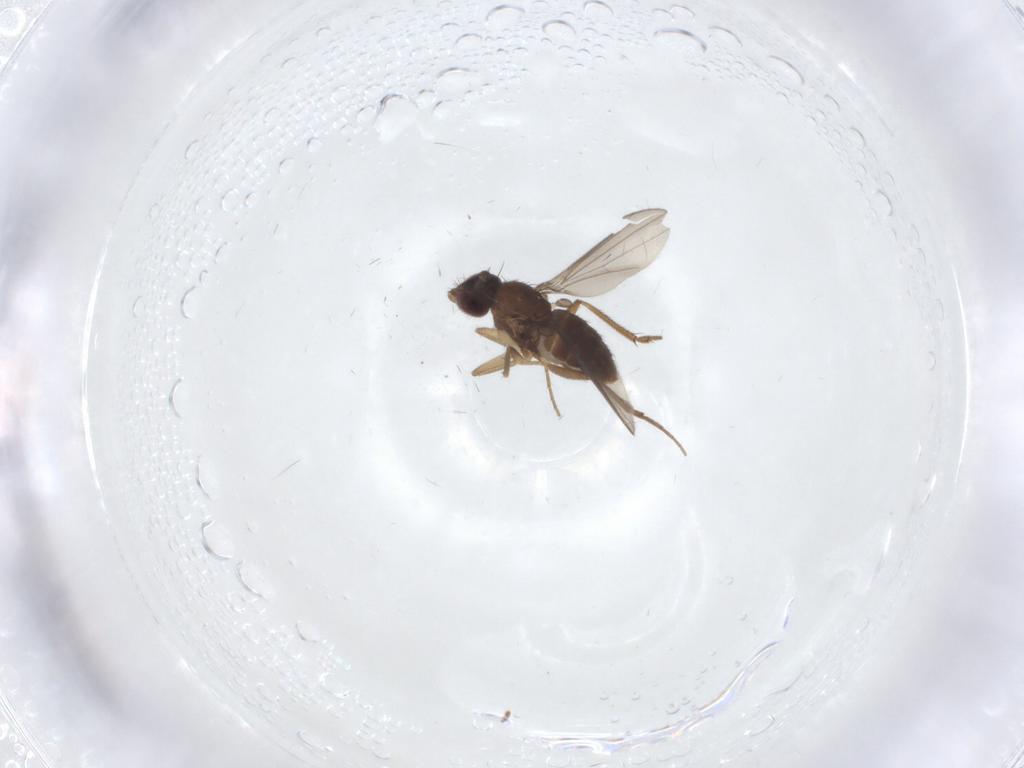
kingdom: Animalia
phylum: Arthropoda
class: Insecta
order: Diptera
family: Dolichopodidae
